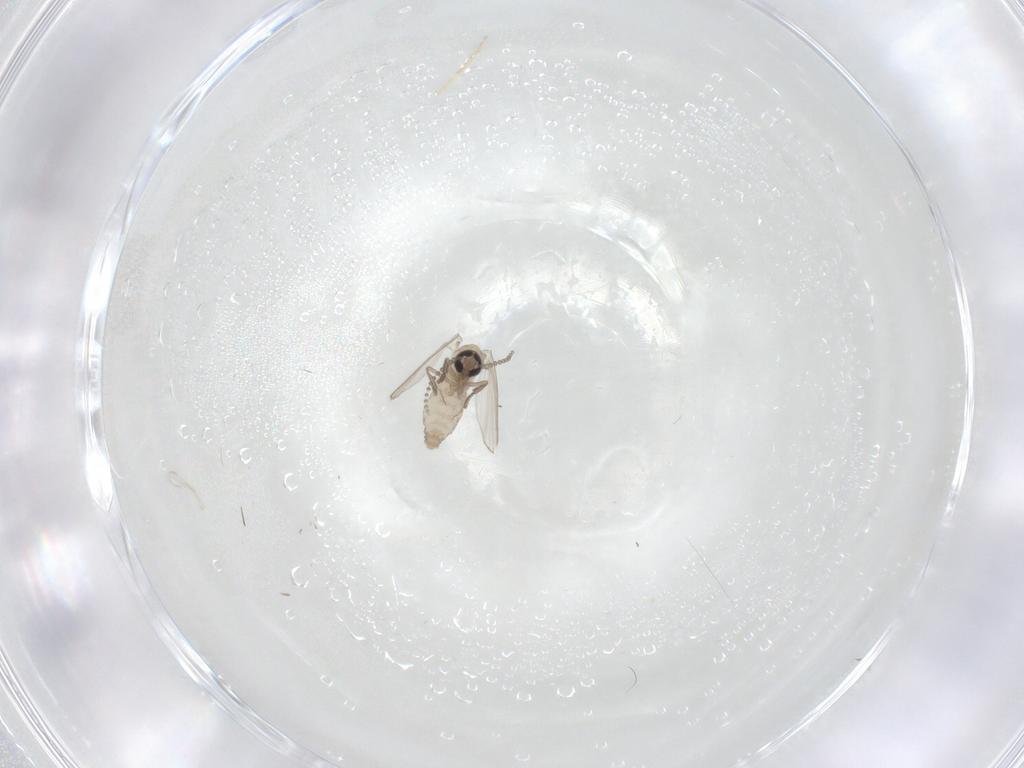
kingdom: Animalia
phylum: Arthropoda
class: Insecta
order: Diptera
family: Psychodidae
